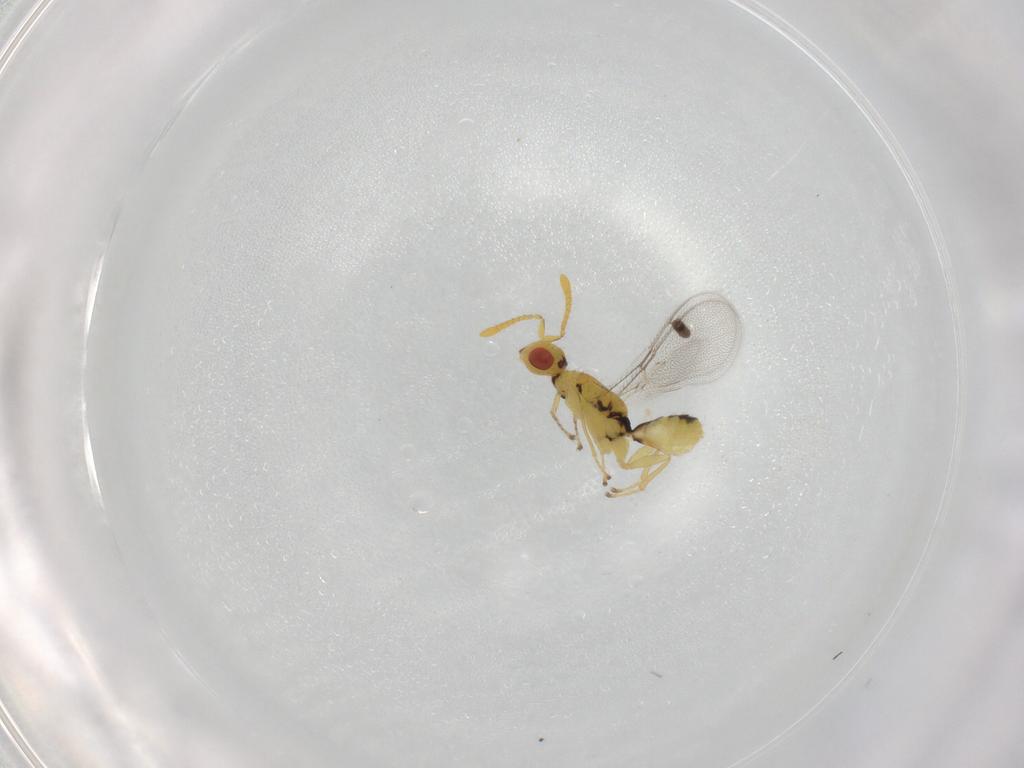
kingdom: Animalia
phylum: Arthropoda
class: Insecta
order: Hymenoptera
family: Megastigmidae
